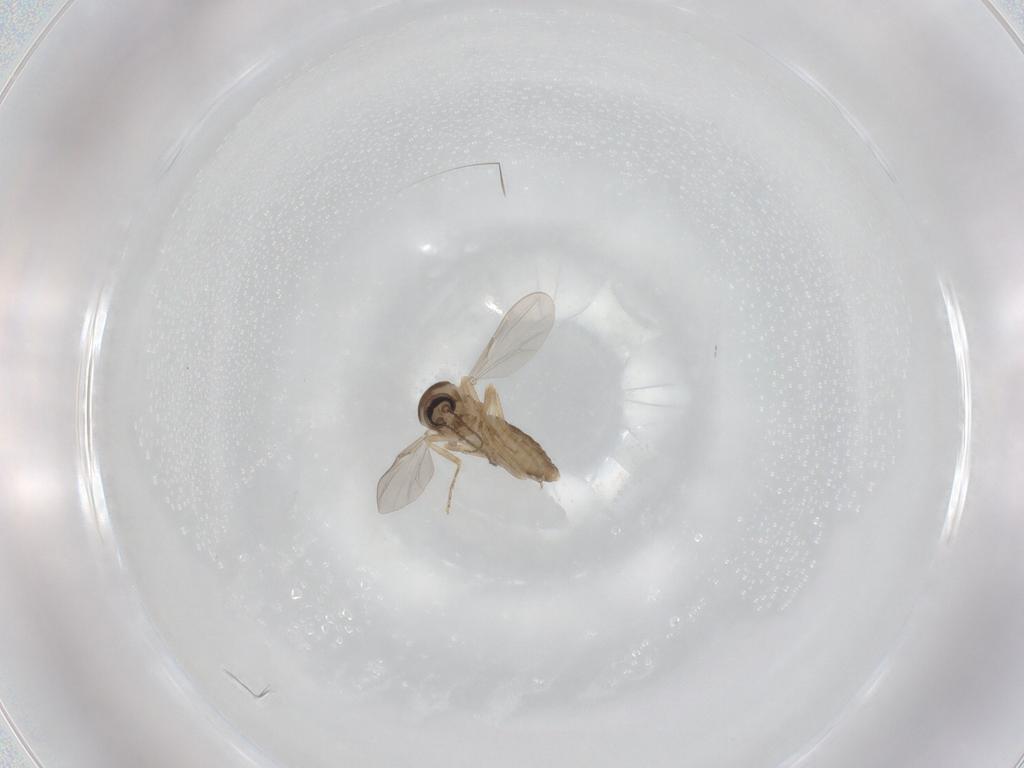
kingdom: Animalia
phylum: Arthropoda
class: Insecta
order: Diptera
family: Ceratopogonidae
